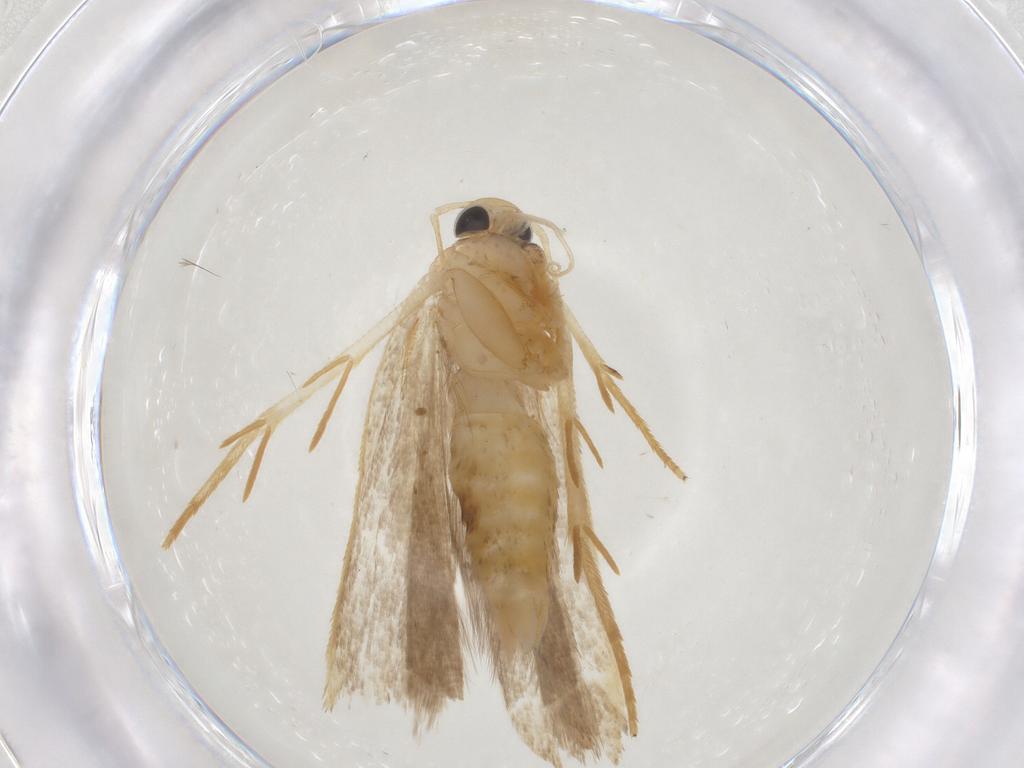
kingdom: Animalia
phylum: Arthropoda
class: Insecta
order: Lepidoptera
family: Gelechiidae
